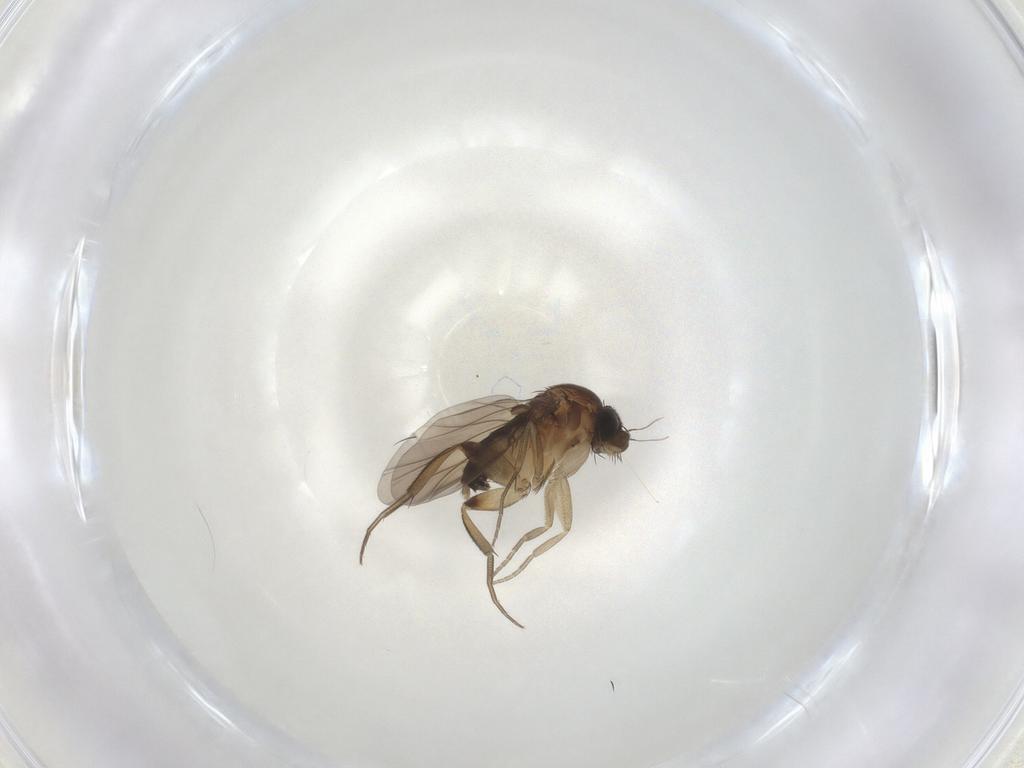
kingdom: Animalia
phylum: Arthropoda
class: Insecta
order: Diptera
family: Phoridae
